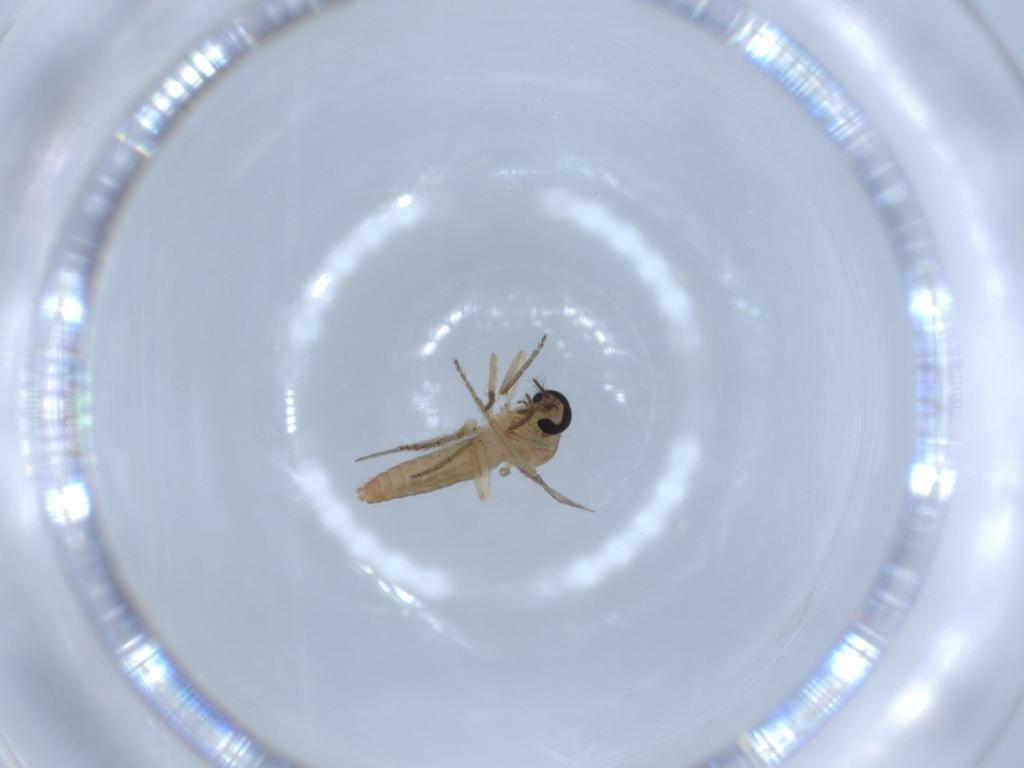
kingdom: Animalia
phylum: Arthropoda
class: Insecta
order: Diptera
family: Ceratopogonidae
